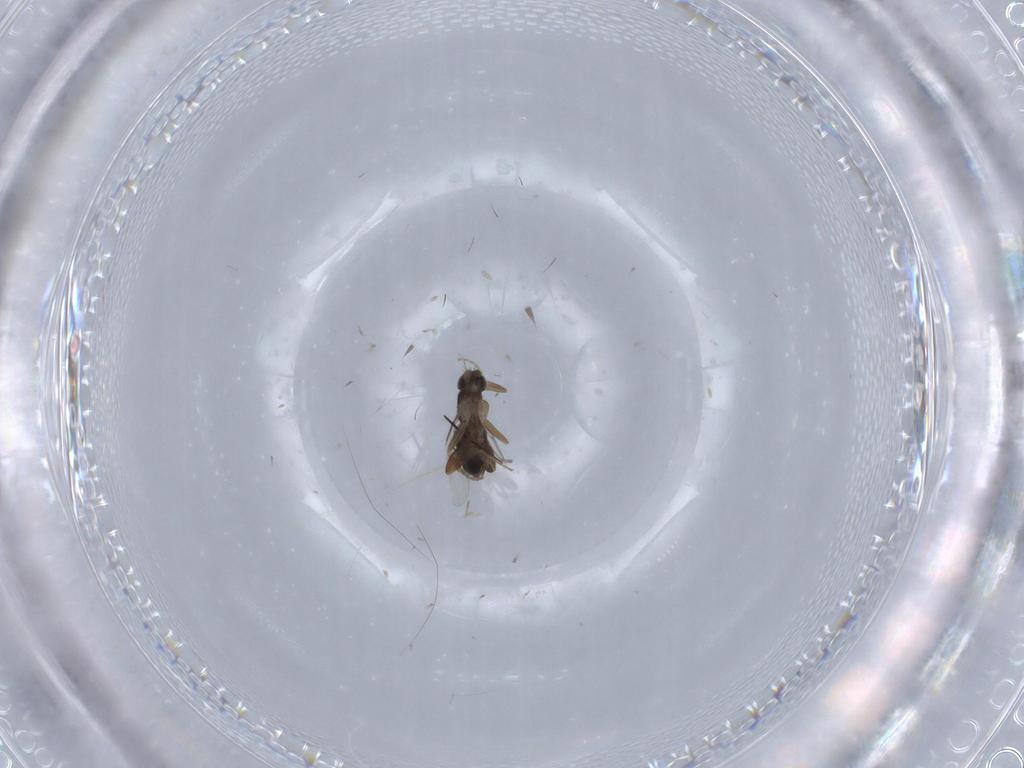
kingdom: Animalia
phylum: Arthropoda
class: Insecta
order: Diptera
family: Phoridae
